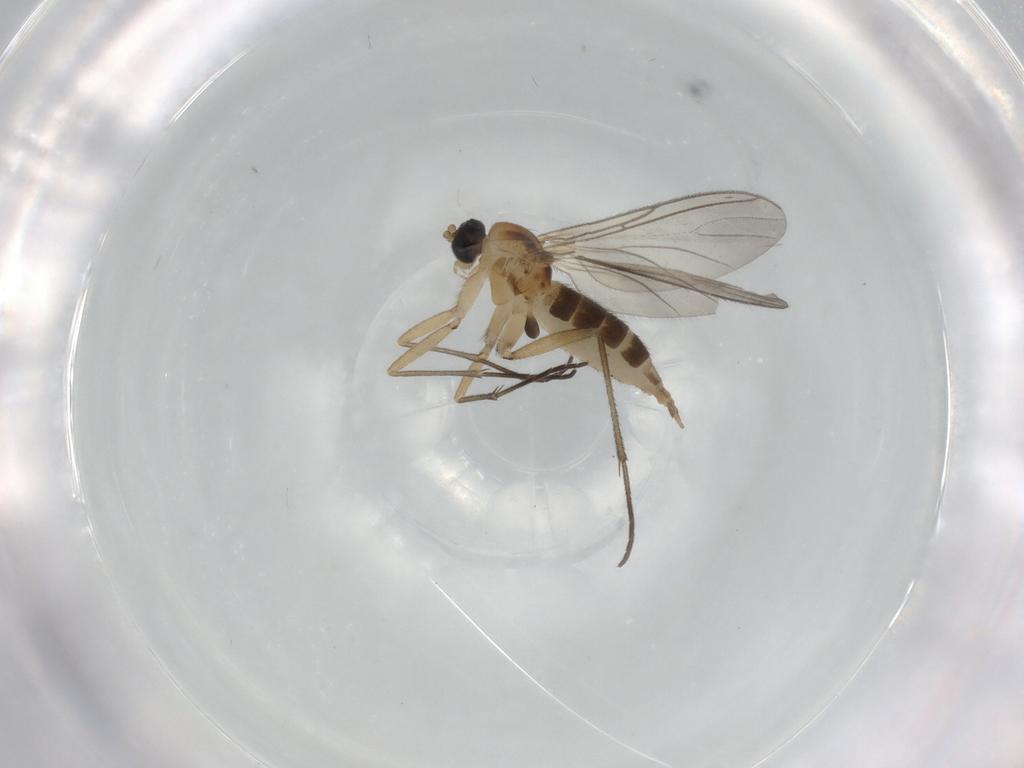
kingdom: Animalia
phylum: Arthropoda
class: Insecta
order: Diptera
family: Sciaridae
